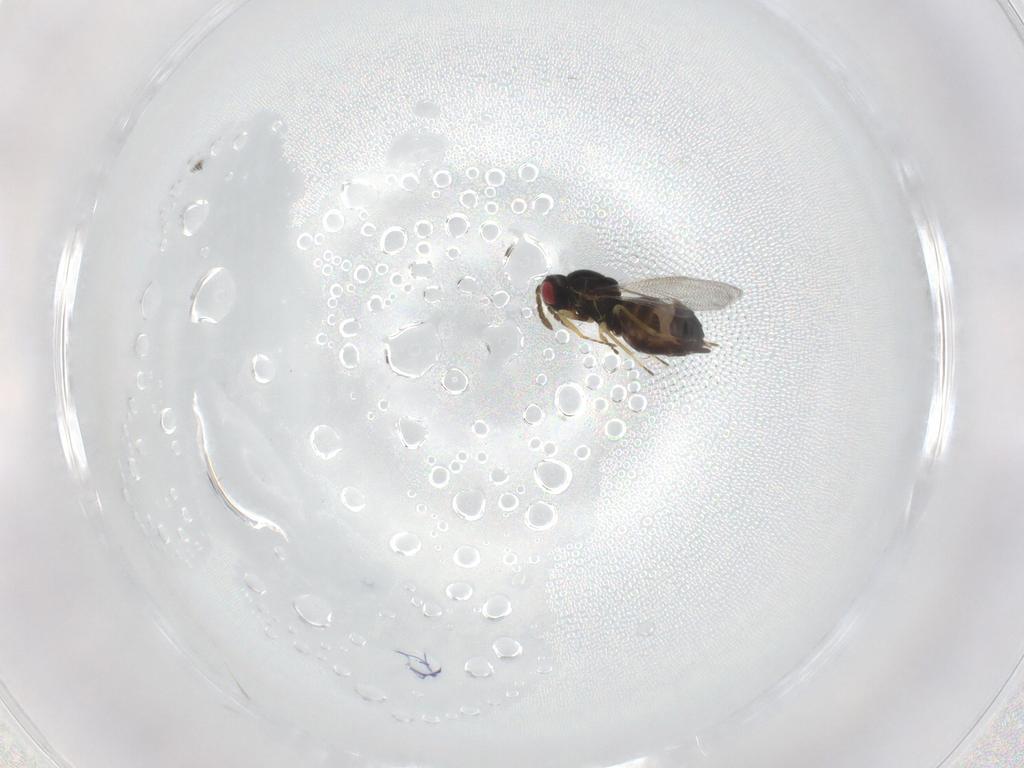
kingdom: Animalia
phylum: Arthropoda
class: Insecta
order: Hymenoptera
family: Eulophidae
